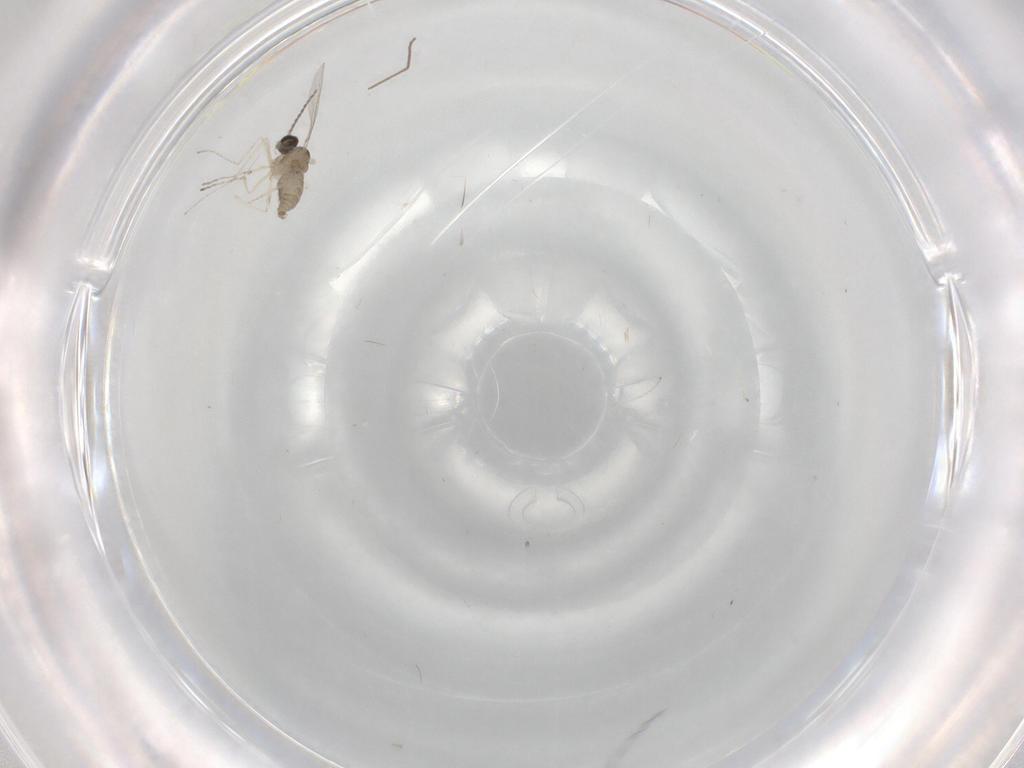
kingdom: Animalia
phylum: Arthropoda
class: Insecta
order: Diptera
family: Cecidomyiidae
